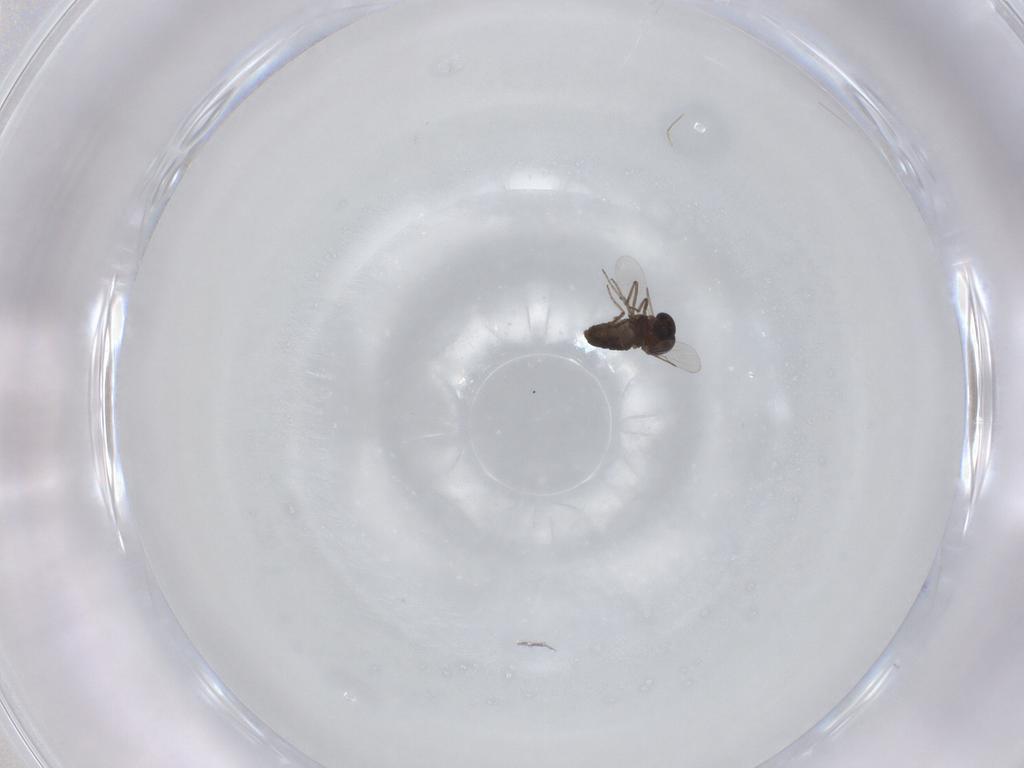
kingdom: Animalia
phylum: Arthropoda
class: Insecta
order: Diptera
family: Ceratopogonidae
